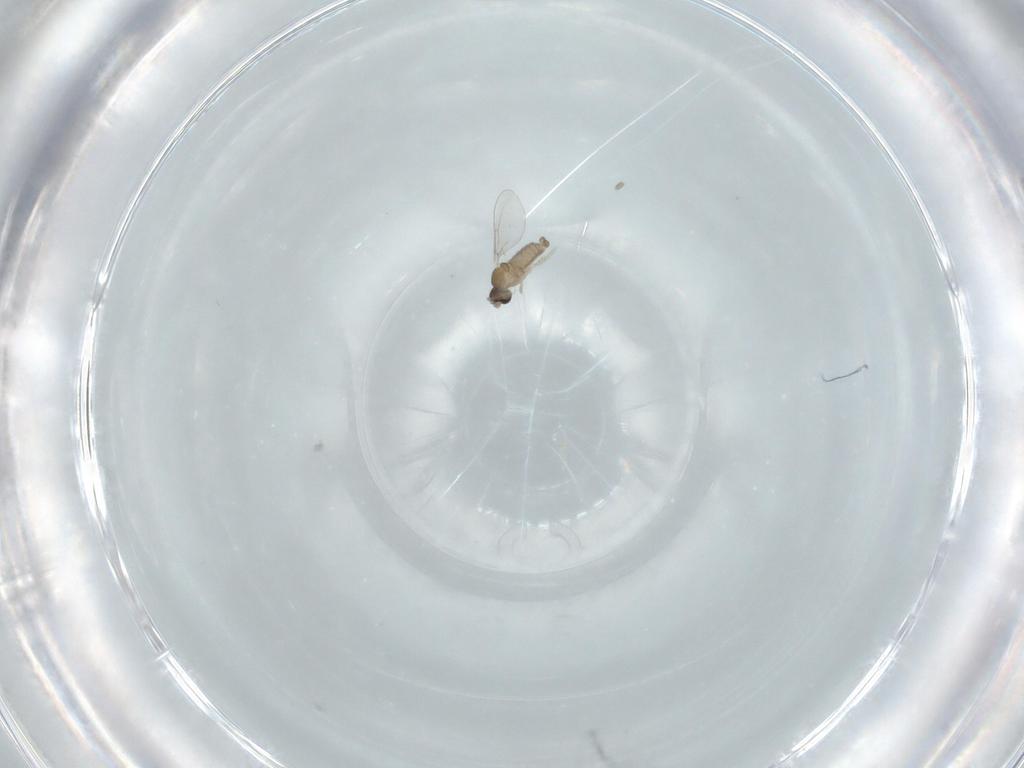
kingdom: Animalia
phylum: Arthropoda
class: Insecta
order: Diptera
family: Cecidomyiidae
